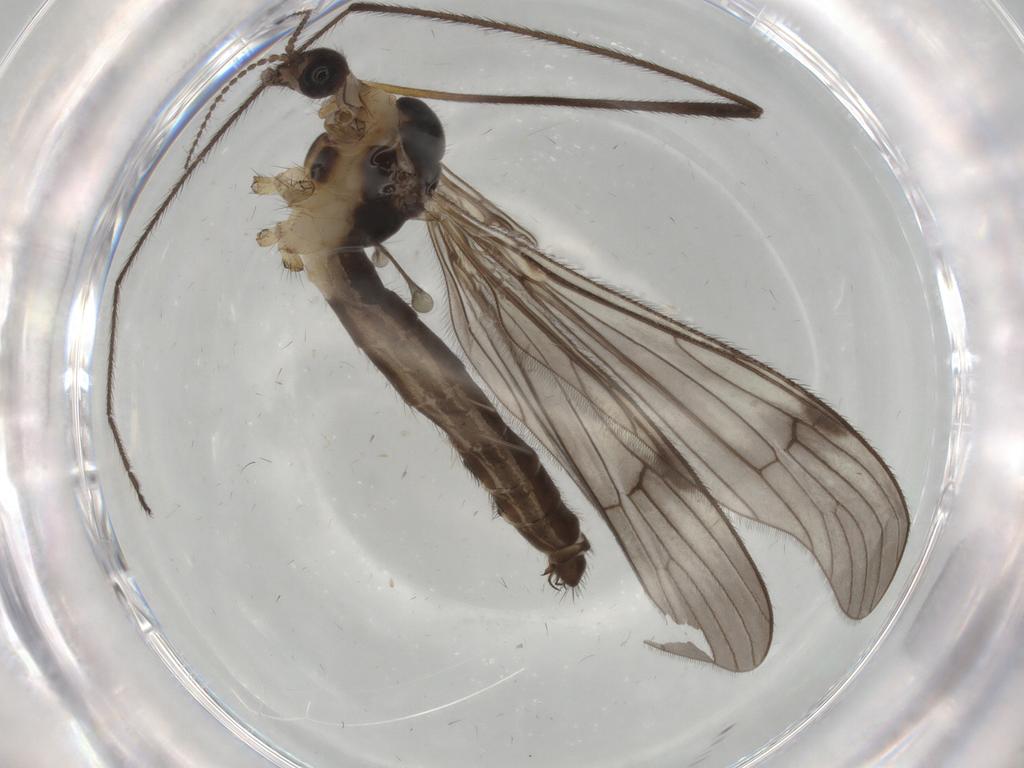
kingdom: Animalia
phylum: Arthropoda
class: Insecta
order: Diptera
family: Limoniidae
